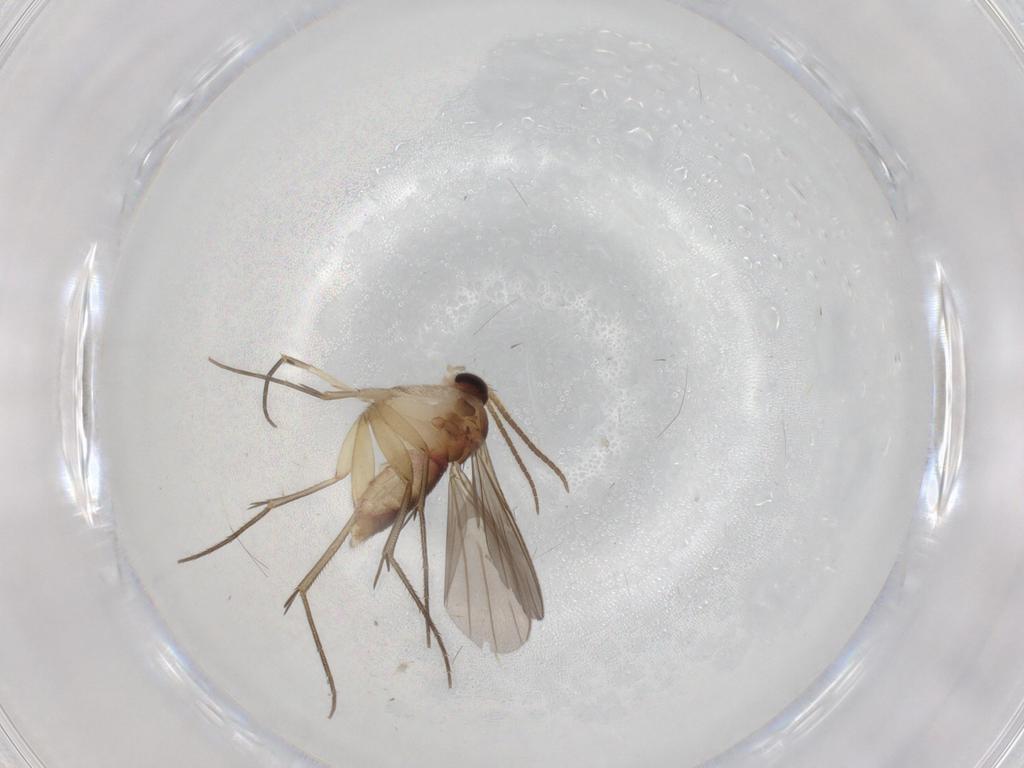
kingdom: Animalia
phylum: Arthropoda
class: Insecta
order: Diptera
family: Mycetophilidae
